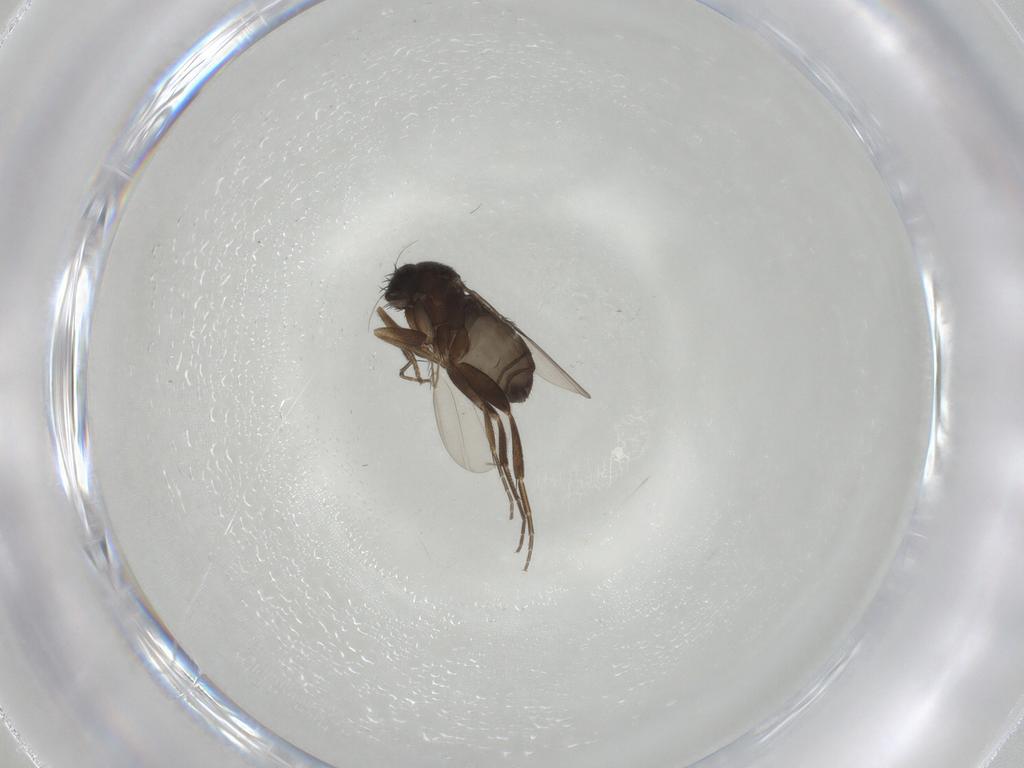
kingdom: Animalia
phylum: Arthropoda
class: Insecta
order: Diptera
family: Phoridae
